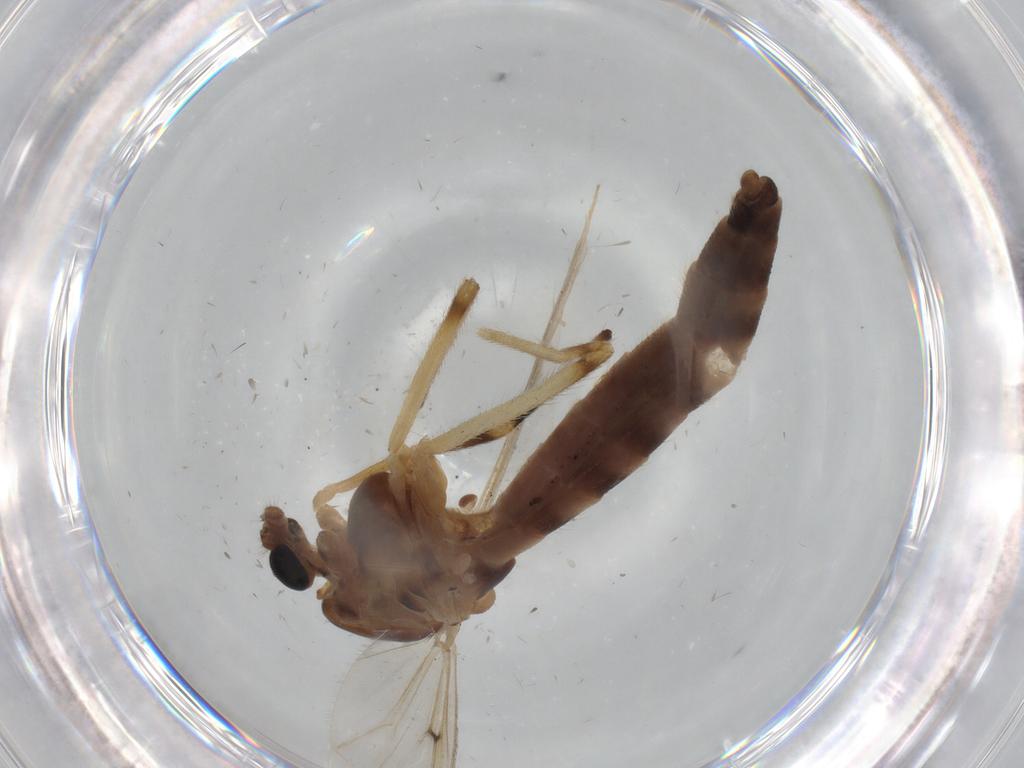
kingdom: Animalia
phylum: Arthropoda
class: Insecta
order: Diptera
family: Chironomidae
